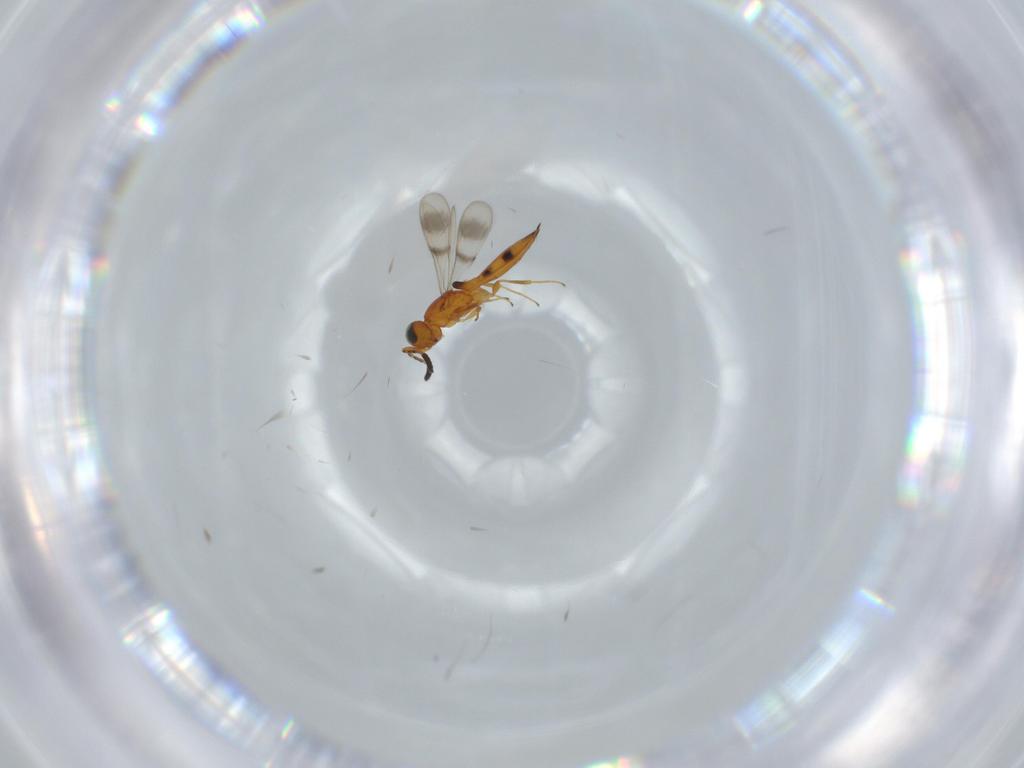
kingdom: Animalia
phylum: Arthropoda
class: Insecta
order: Hymenoptera
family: Scelionidae
